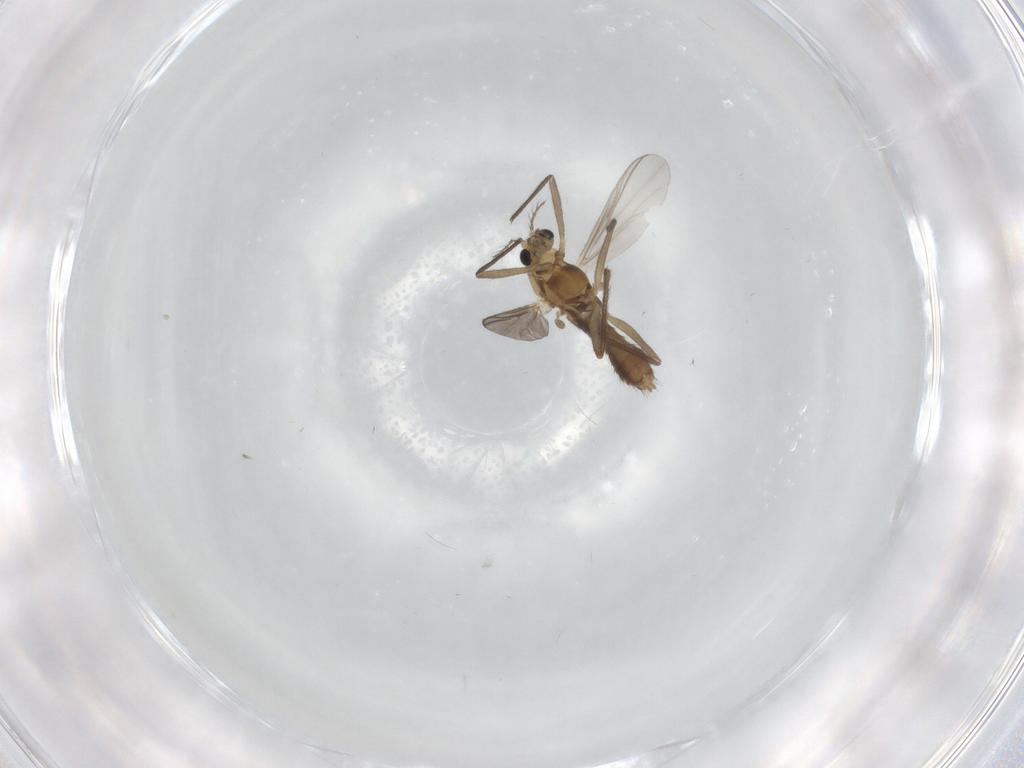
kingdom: Animalia
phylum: Arthropoda
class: Insecta
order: Diptera
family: Chironomidae
